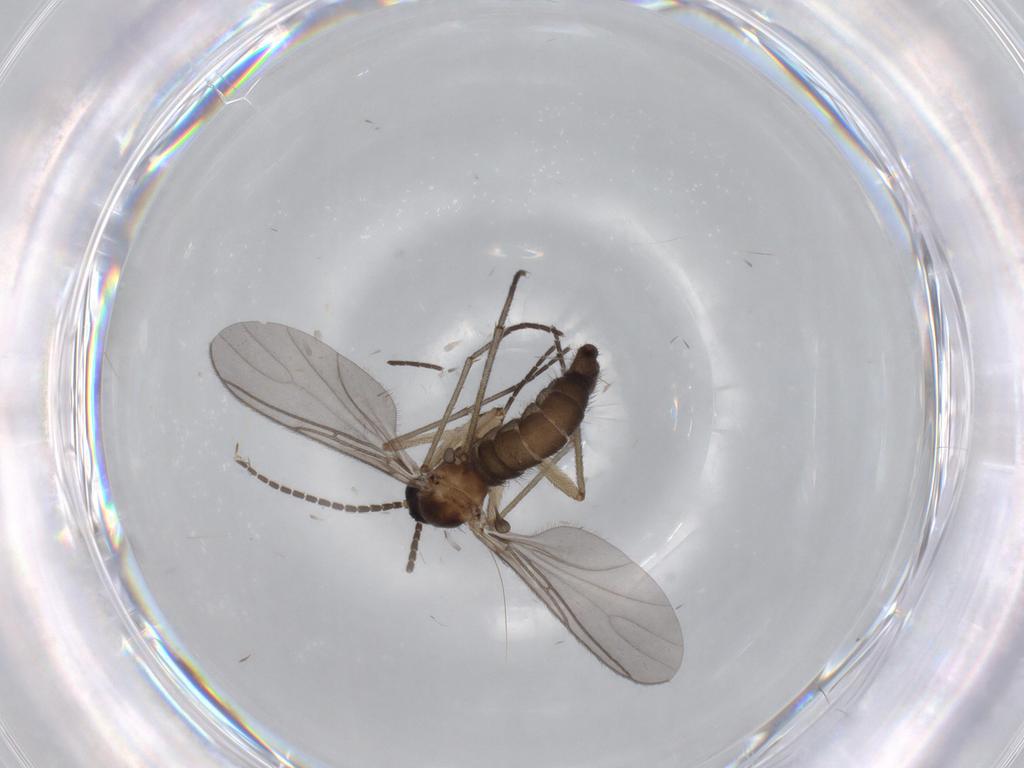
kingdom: Animalia
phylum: Arthropoda
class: Insecta
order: Diptera
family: Sciaridae
